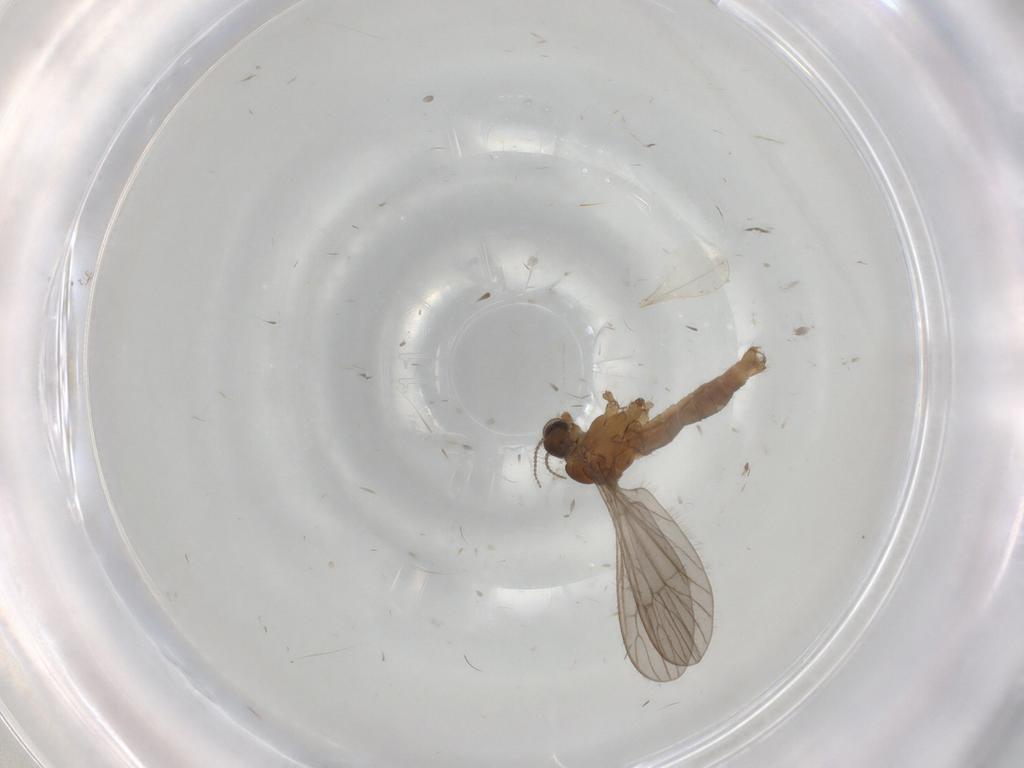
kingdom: Animalia
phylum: Arthropoda
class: Insecta
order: Diptera
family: Limoniidae
